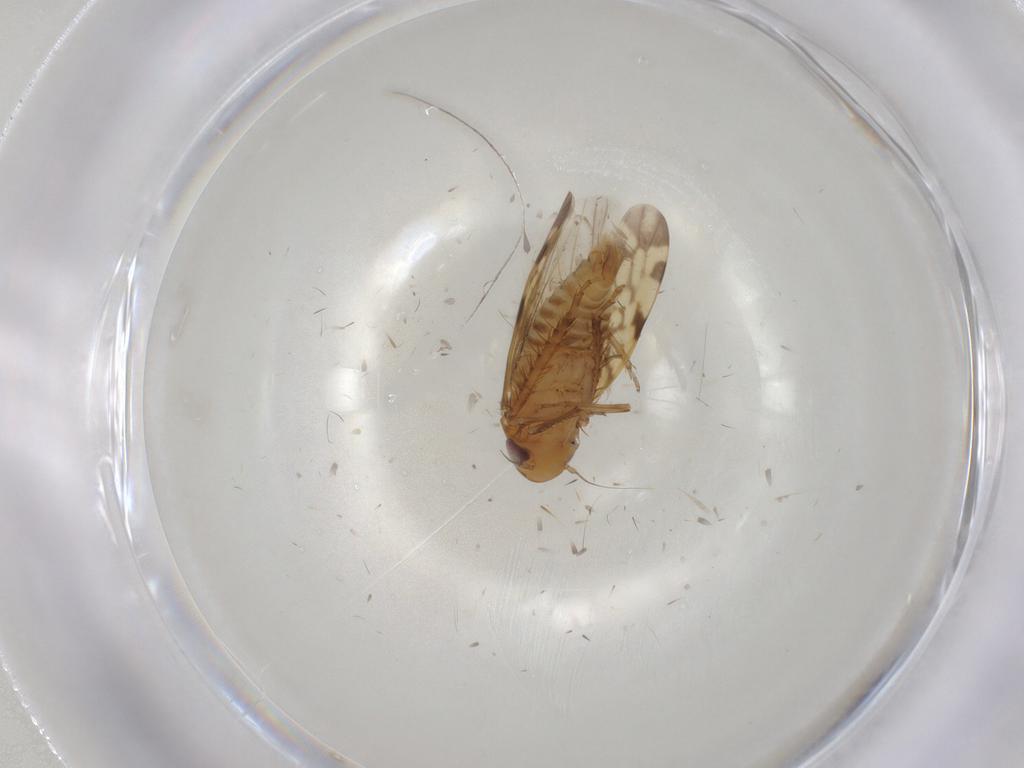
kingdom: Animalia
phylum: Arthropoda
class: Insecta
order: Hemiptera
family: Cicadellidae
